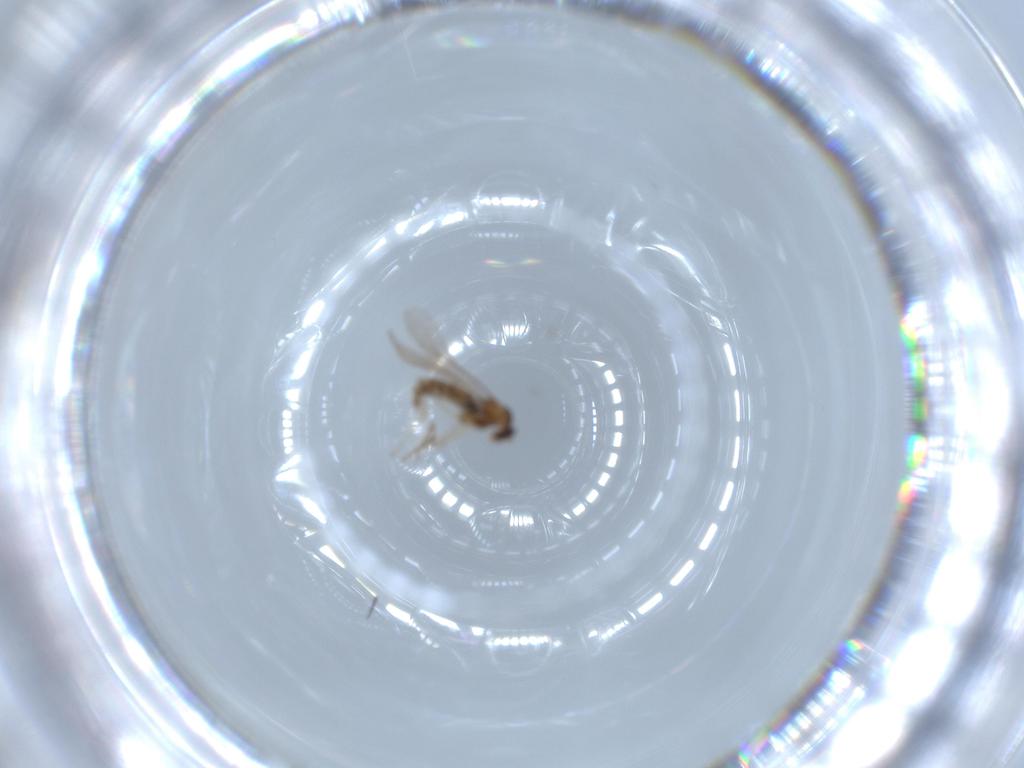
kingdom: Animalia
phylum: Arthropoda
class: Insecta
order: Diptera
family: Cecidomyiidae
